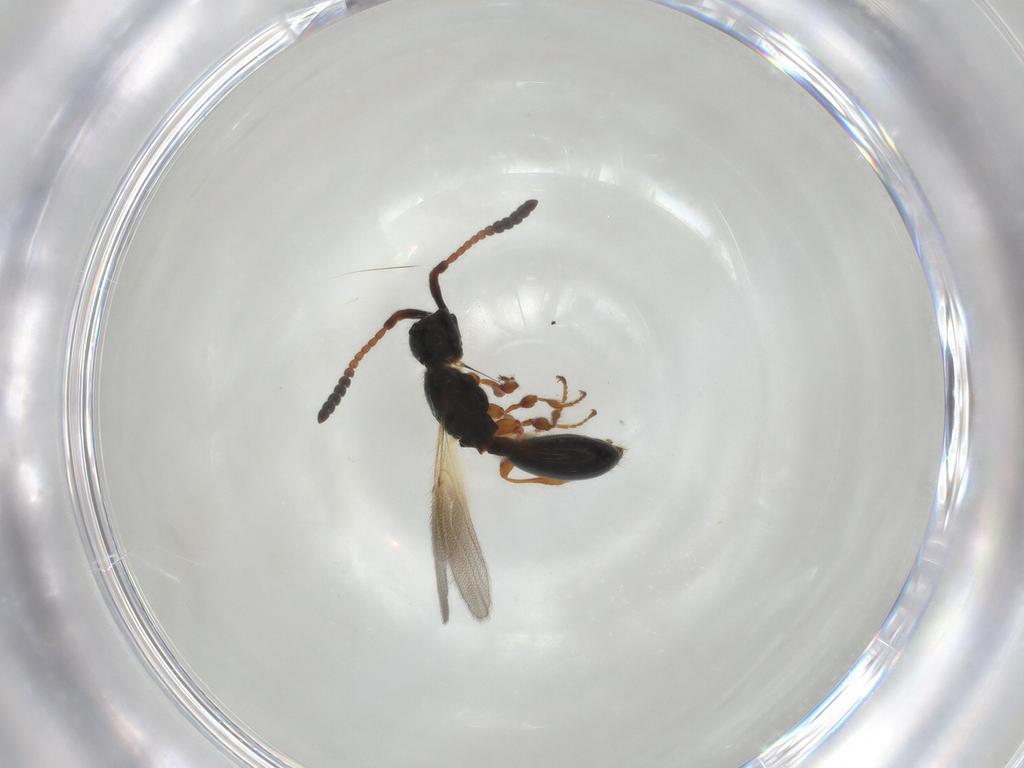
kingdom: Animalia
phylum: Arthropoda
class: Insecta
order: Hymenoptera
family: Diapriidae
